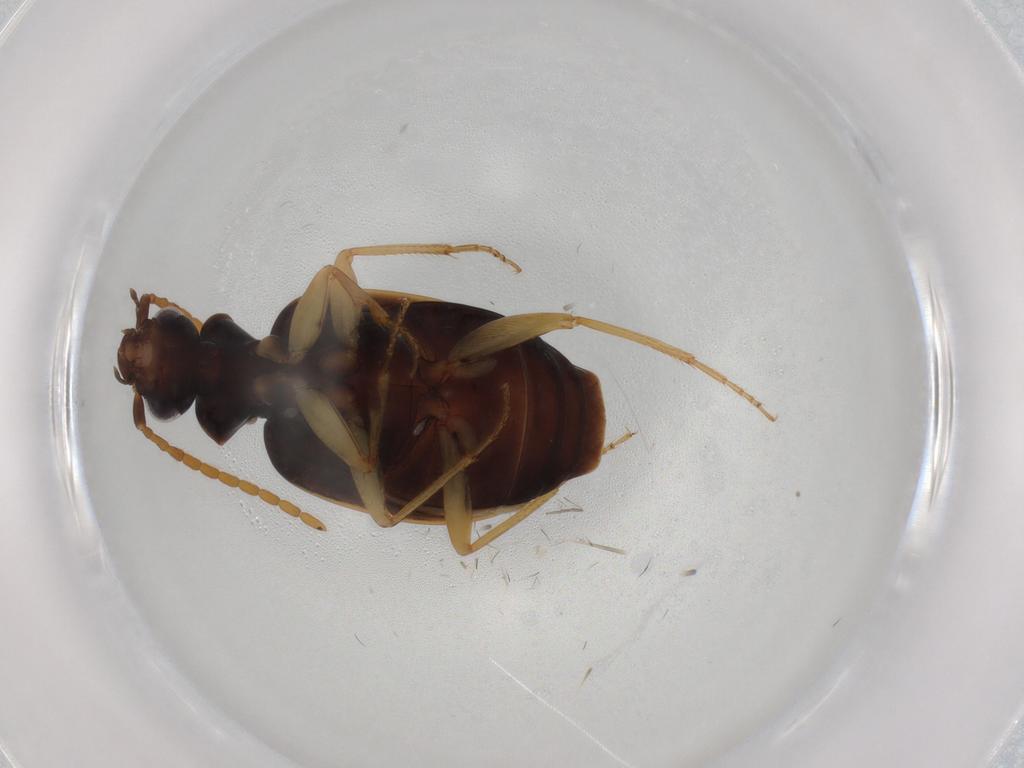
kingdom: Animalia
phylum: Arthropoda
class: Insecta
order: Coleoptera
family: Carabidae
